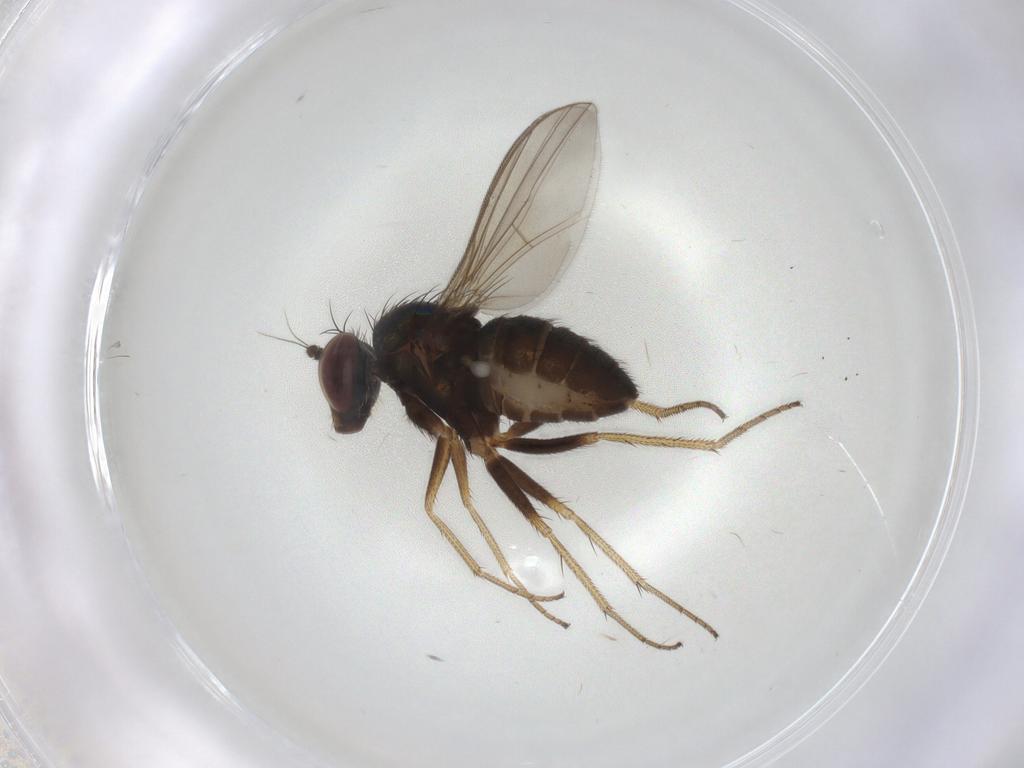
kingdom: Animalia
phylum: Arthropoda
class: Insecta
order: Diptera
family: Dolichopodidae
